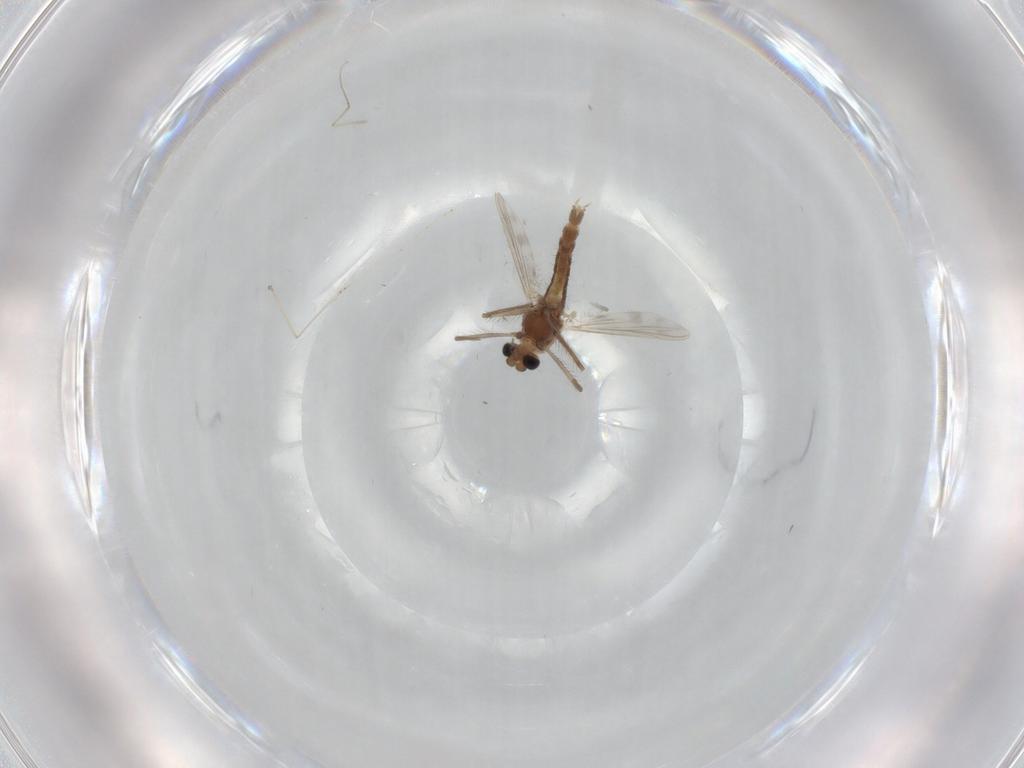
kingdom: Animalia
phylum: Arthropoda
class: Insecta
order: Diptera
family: Chironomidae
